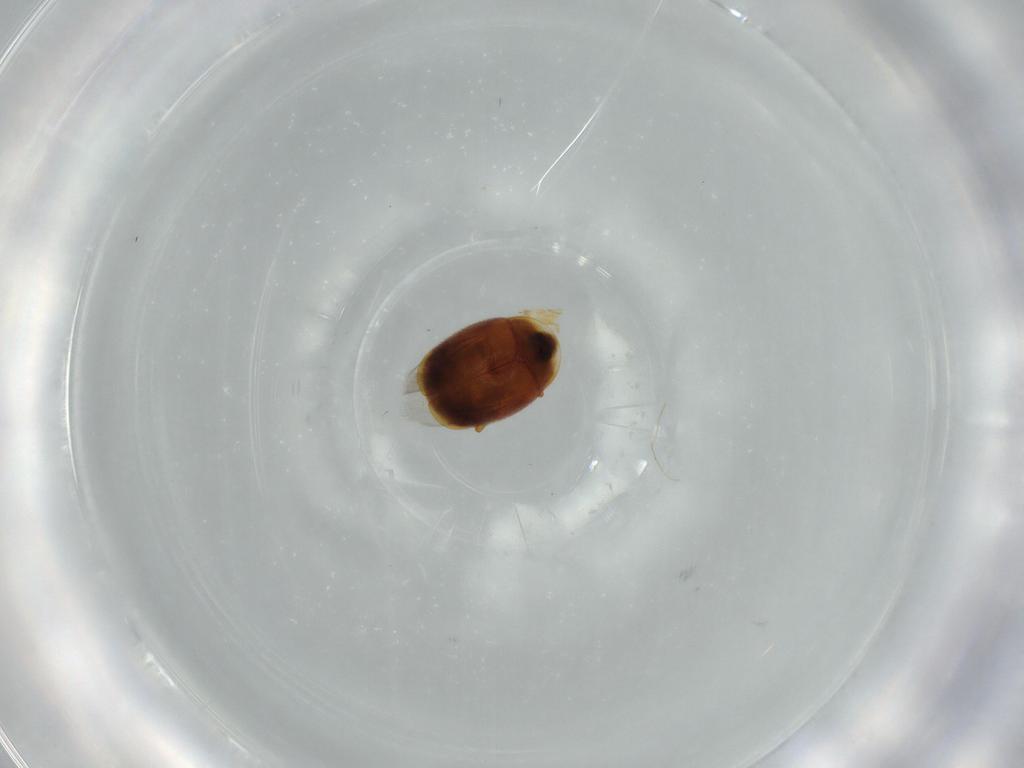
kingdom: Animalia
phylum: Arthropoda
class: Insecta
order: Coleoptera
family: Corylophidae
